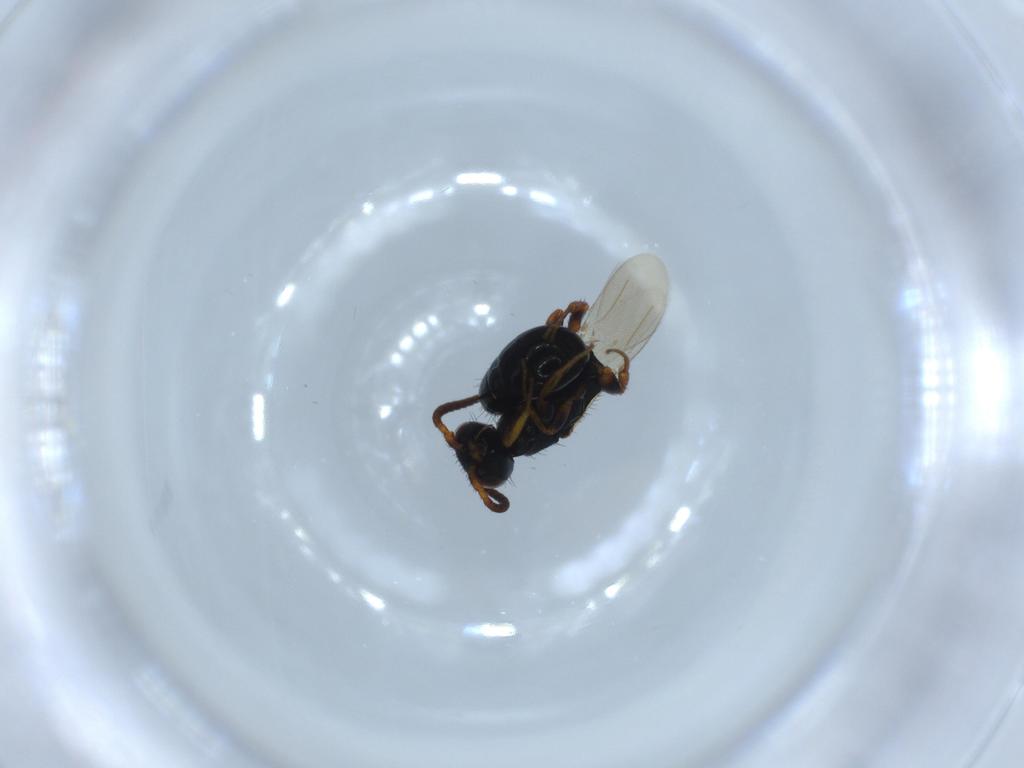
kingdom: Animalia
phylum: Arthropoda
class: Insecta
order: Hymenoptera
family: Bethylidae
